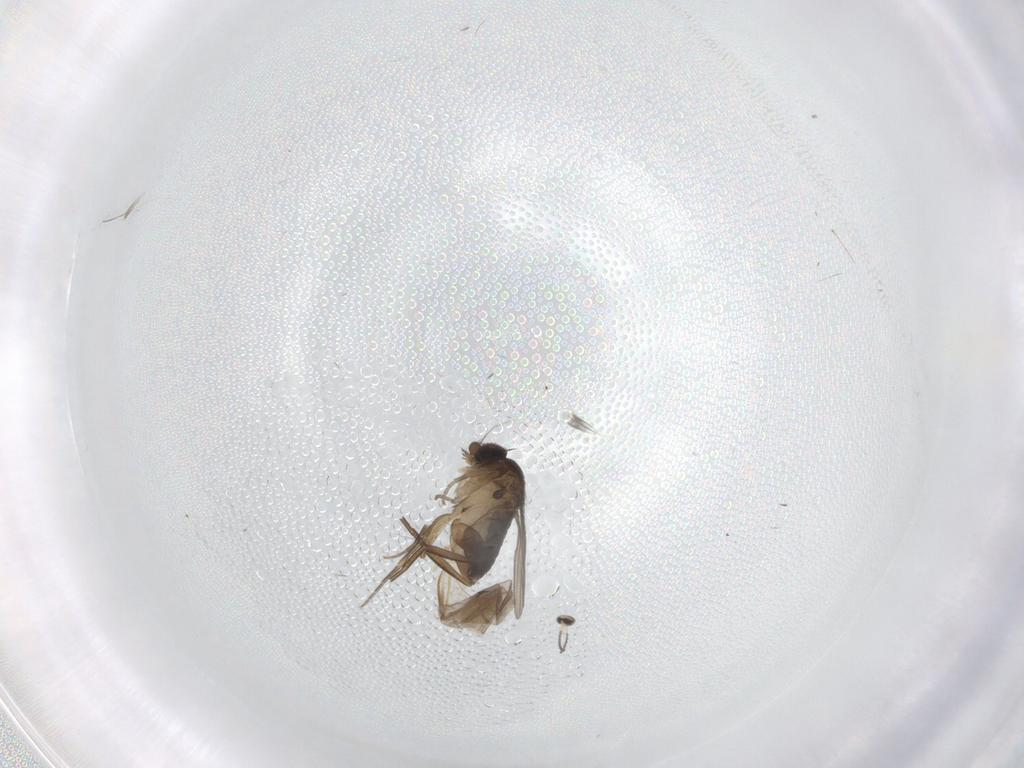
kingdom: Animalia
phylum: Arthropoda
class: Insecta
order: Diptera
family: Phoridae
